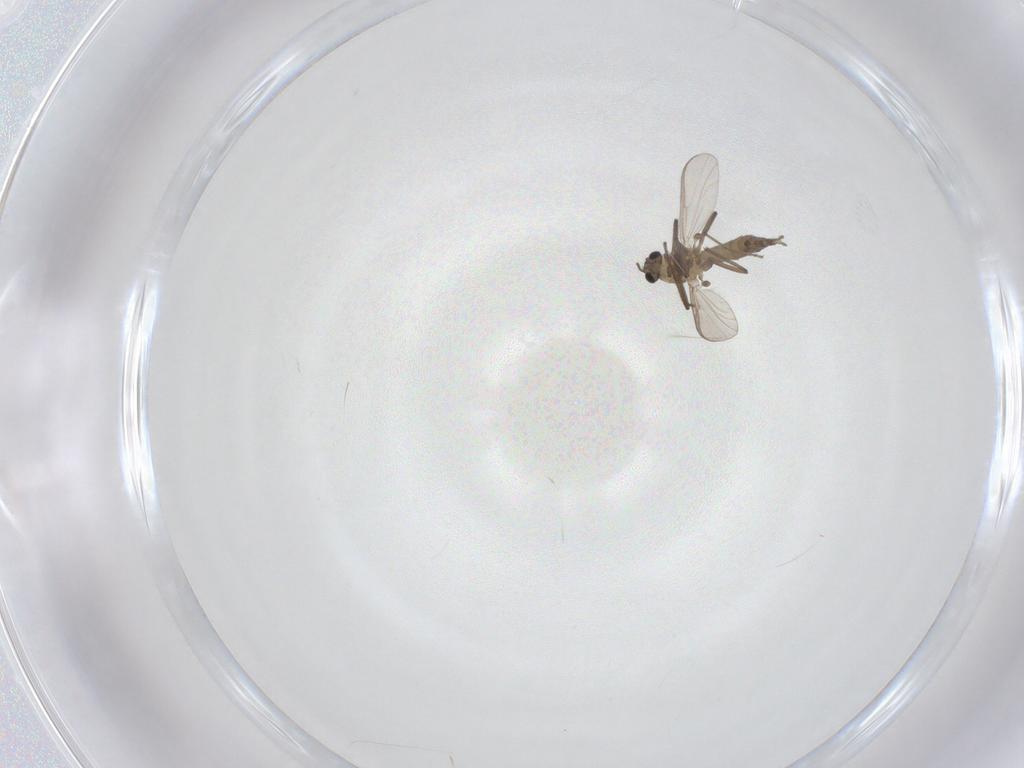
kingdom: Animalia
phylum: Arthropoda
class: Insecta
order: Diptera
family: Chironomidae
